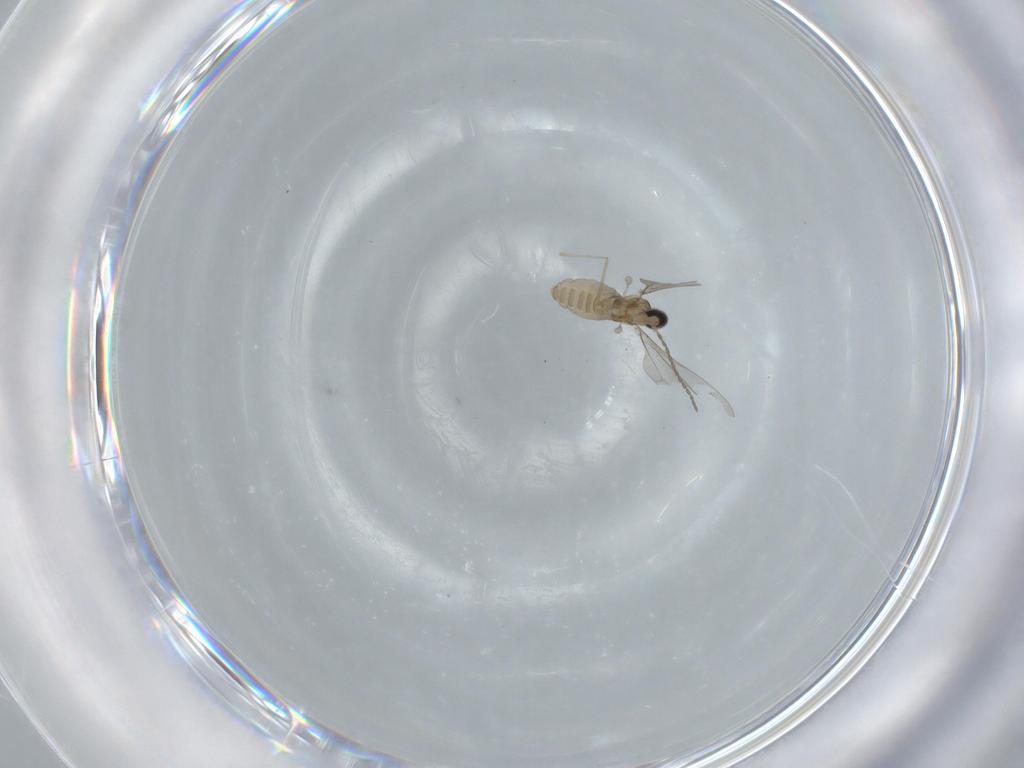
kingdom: Animalia
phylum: Arthropoda
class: Insecta
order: Diptera
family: Cecidomyiidae
